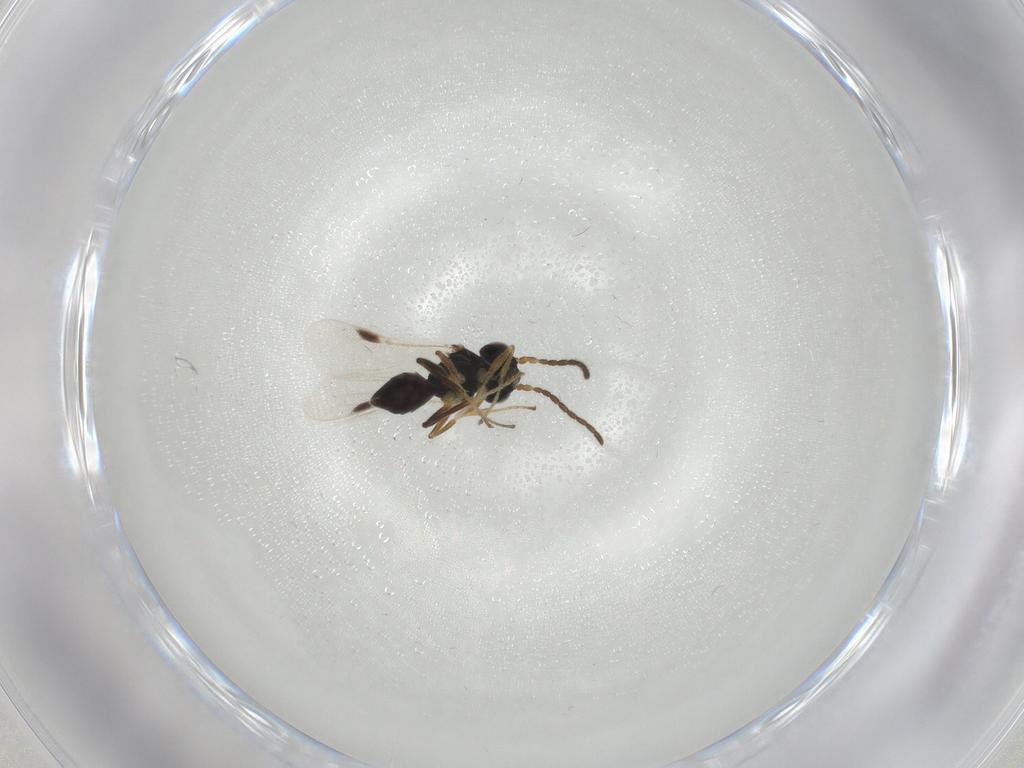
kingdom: Animalia
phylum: Arthropoda
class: Insecta
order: Hymenoptera
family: Dryinidae
